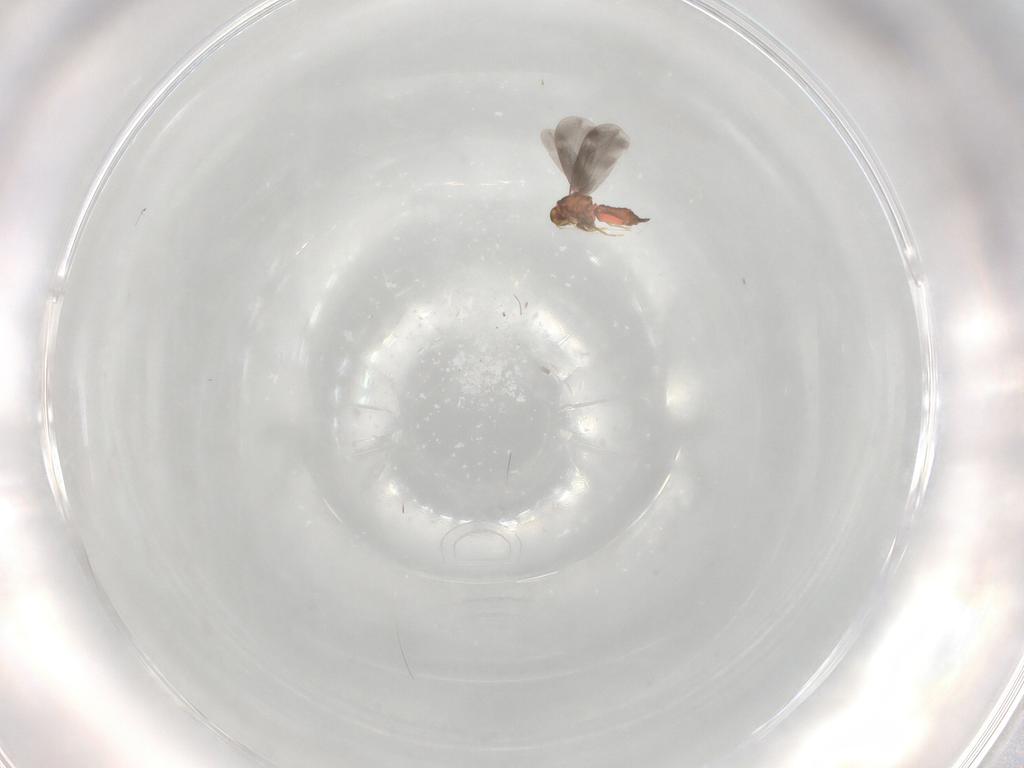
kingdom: Animalia
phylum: Arthropoda
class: Insecta
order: Hemiptera
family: Aleyrodidae
